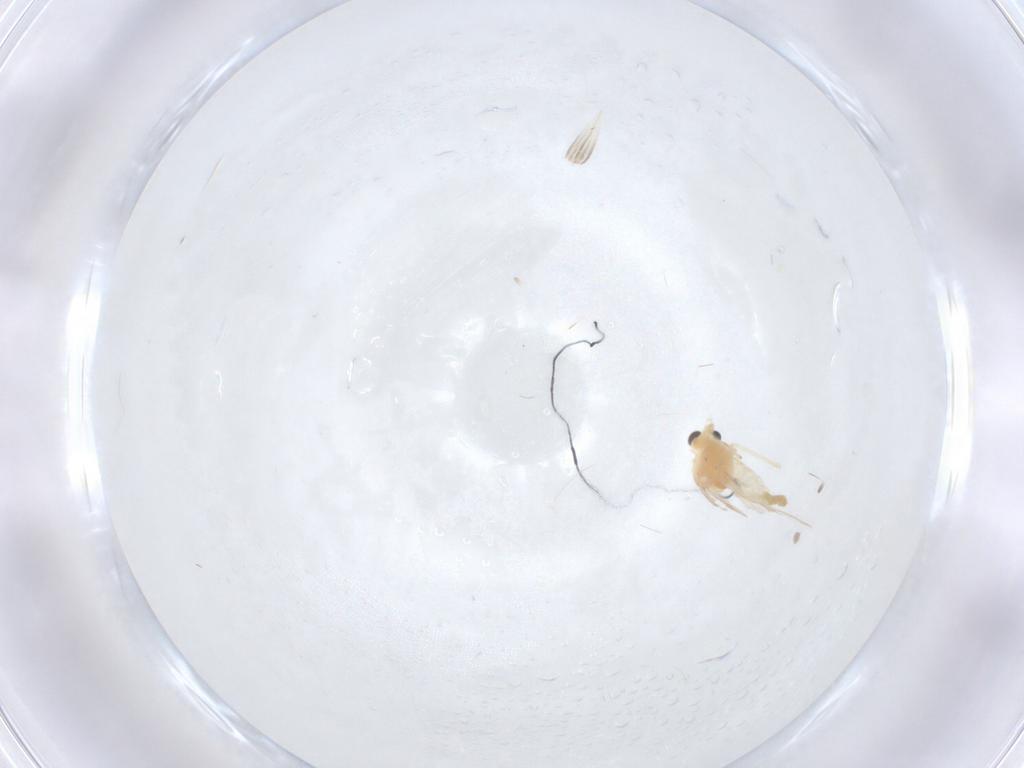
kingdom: Animalia
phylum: Arthropoda
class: Insecta
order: Diptera
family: Chironomidae
